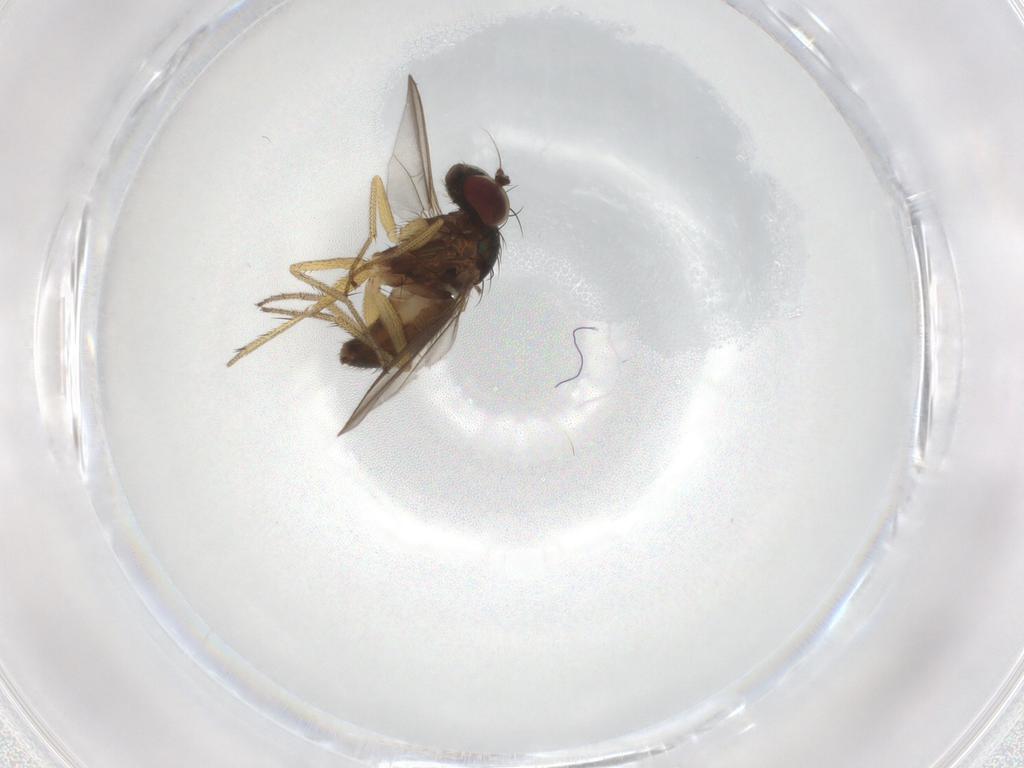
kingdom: Animalia
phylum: Arthropoda
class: Insecta
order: Diptera
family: Dolichopodidae
